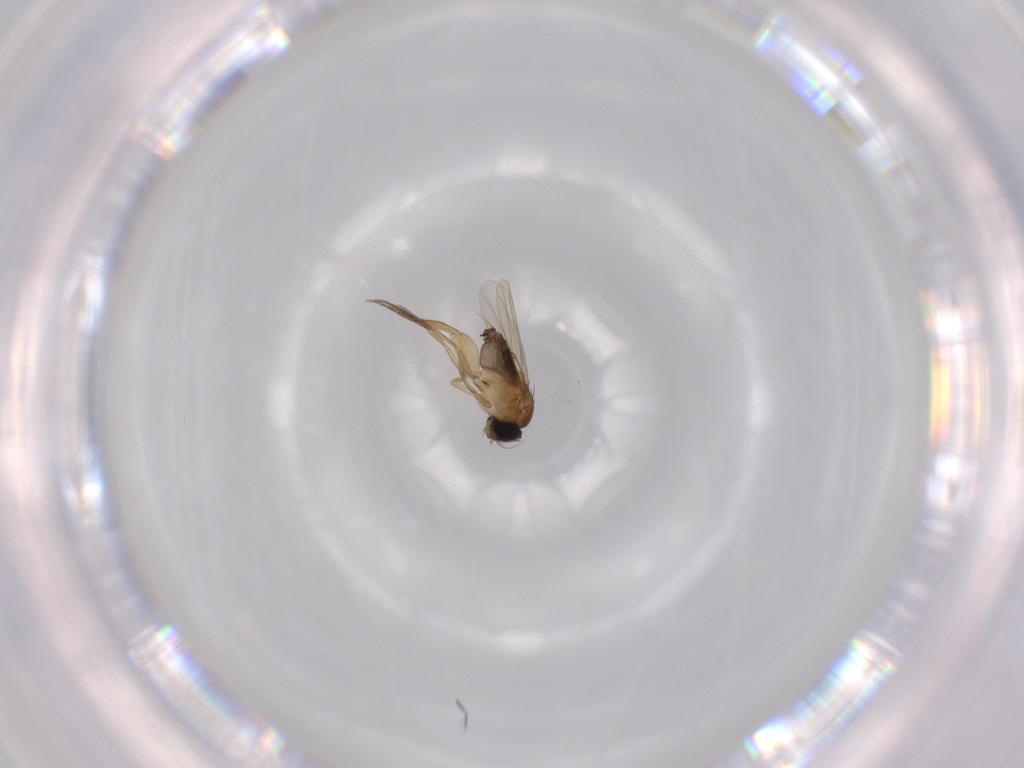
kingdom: Animalia
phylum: Arthropoda
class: Insecta
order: Diptera
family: Phoridae
